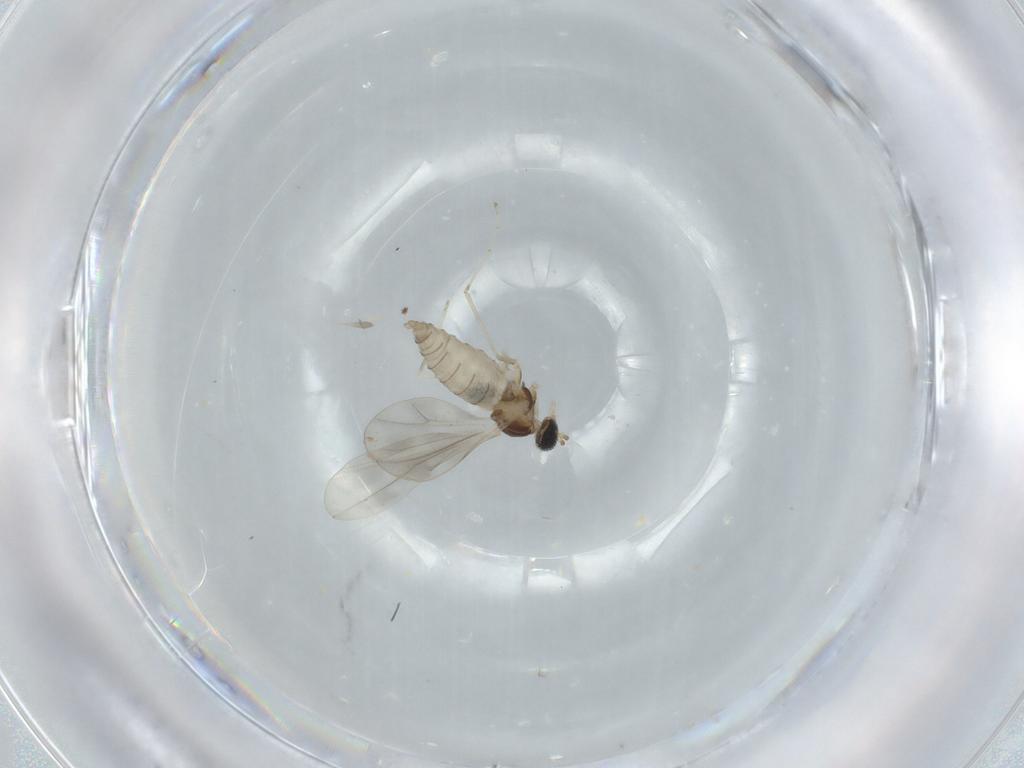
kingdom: Animalia
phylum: Arthropoda
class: Insecta
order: Diptera
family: Cecidomyiidae
